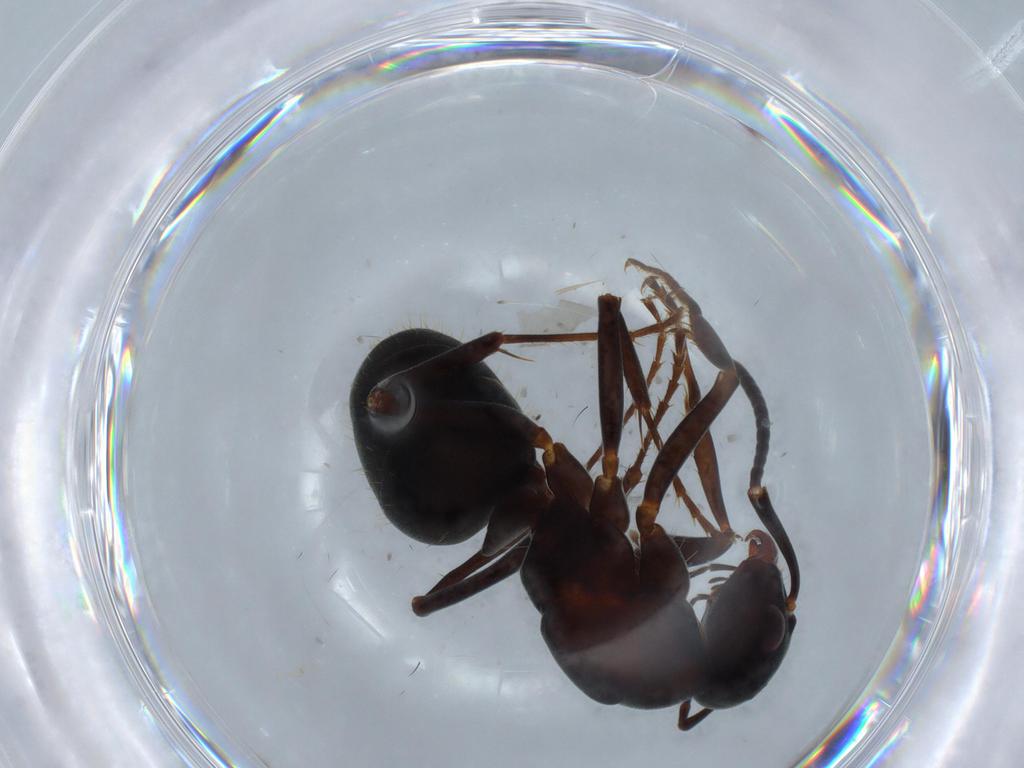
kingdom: Animalia
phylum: Arthropoda
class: Insecta
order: Hymenoptera
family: Formicidae
